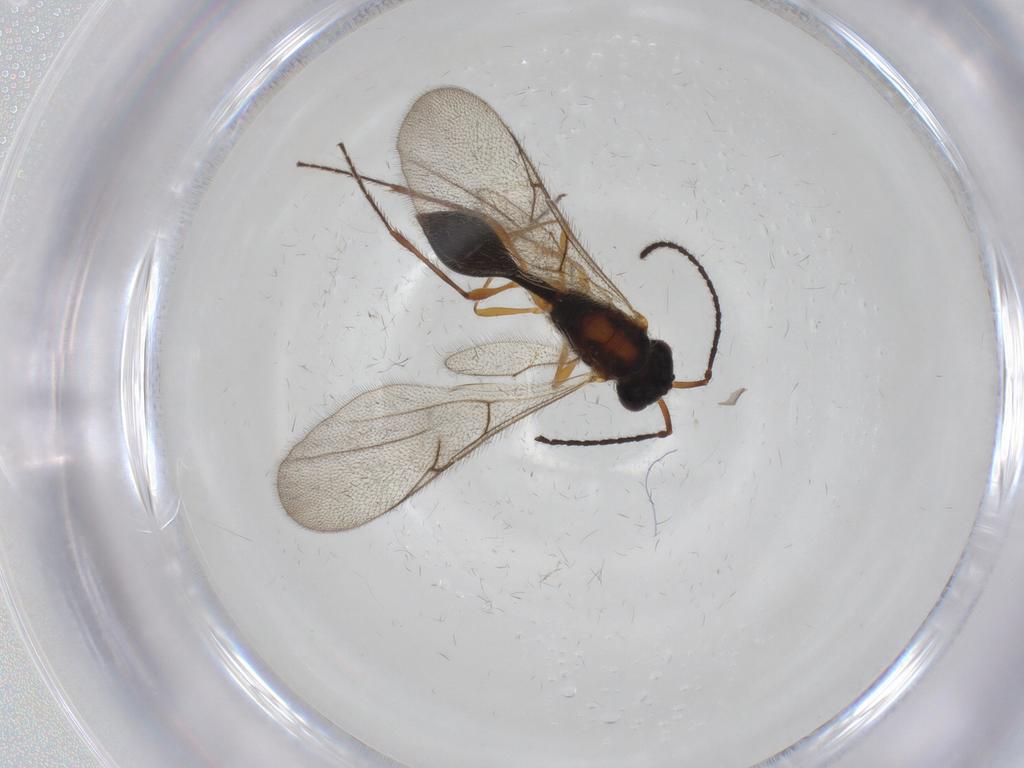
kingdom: Animalia
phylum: Arthropoda
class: Insecta
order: Hymenoptera
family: Diapriidae
